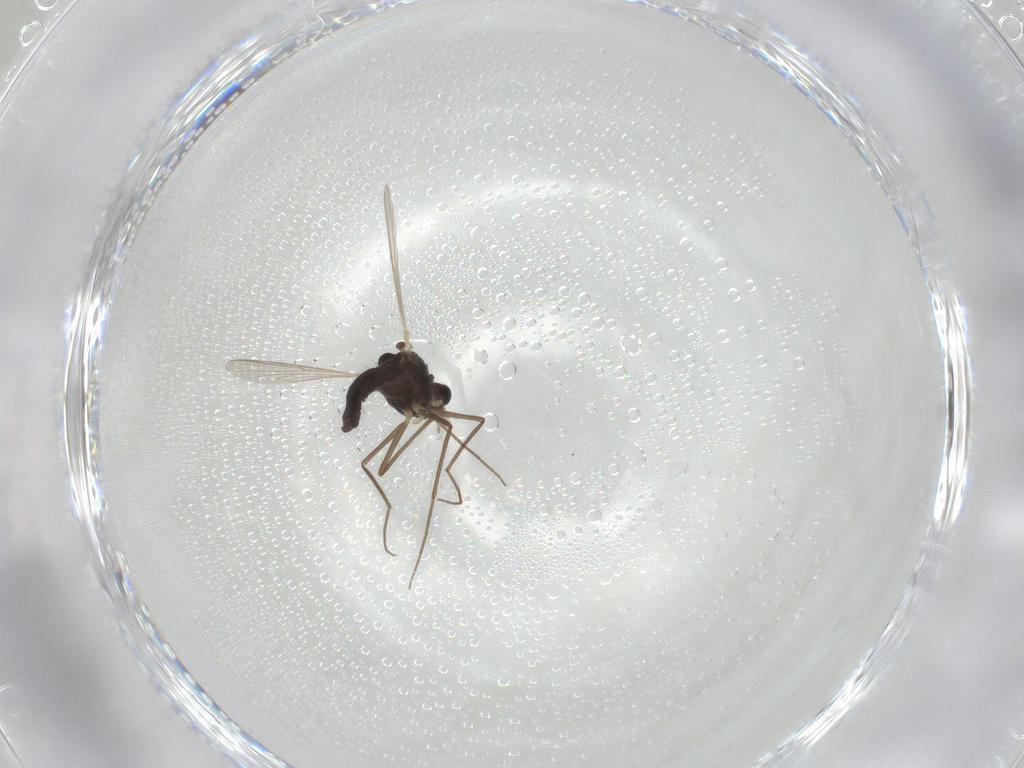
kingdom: Animalia
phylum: Arthropoda
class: Insecta
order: Diptera
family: Chironomidae
